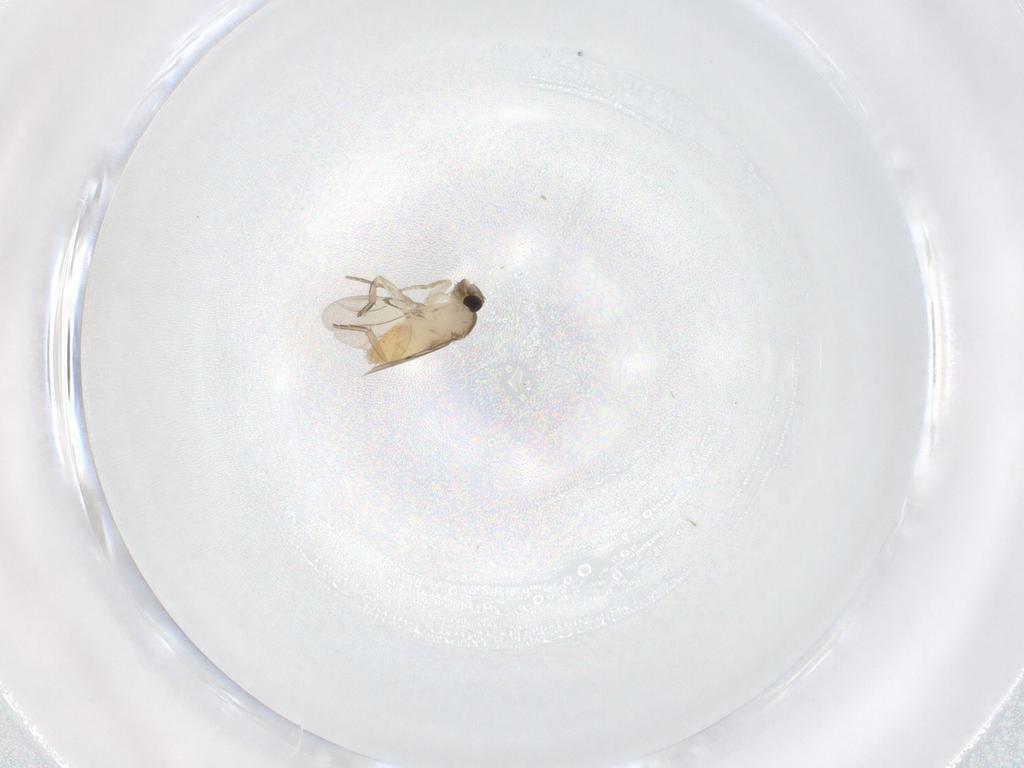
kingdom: Animalia
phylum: Arthropoda
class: Insecta
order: Diptera
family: Phoridae
